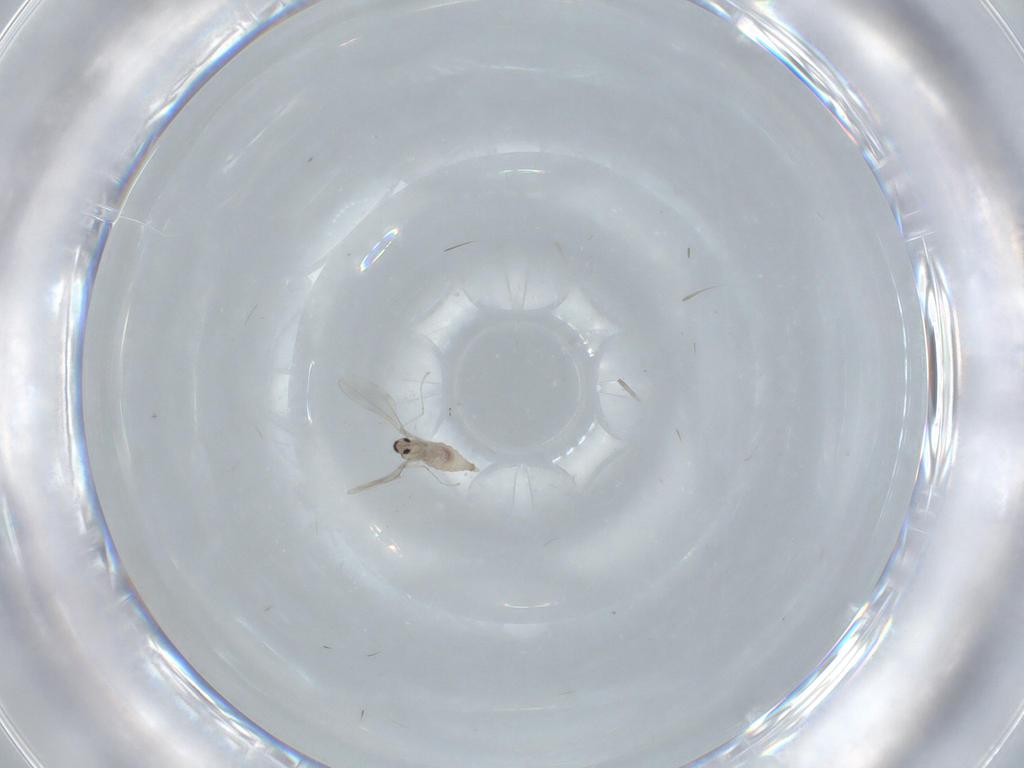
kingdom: Animalia
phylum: Arthropoda
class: Insecta
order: Diptera
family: Cecidomyiidae
